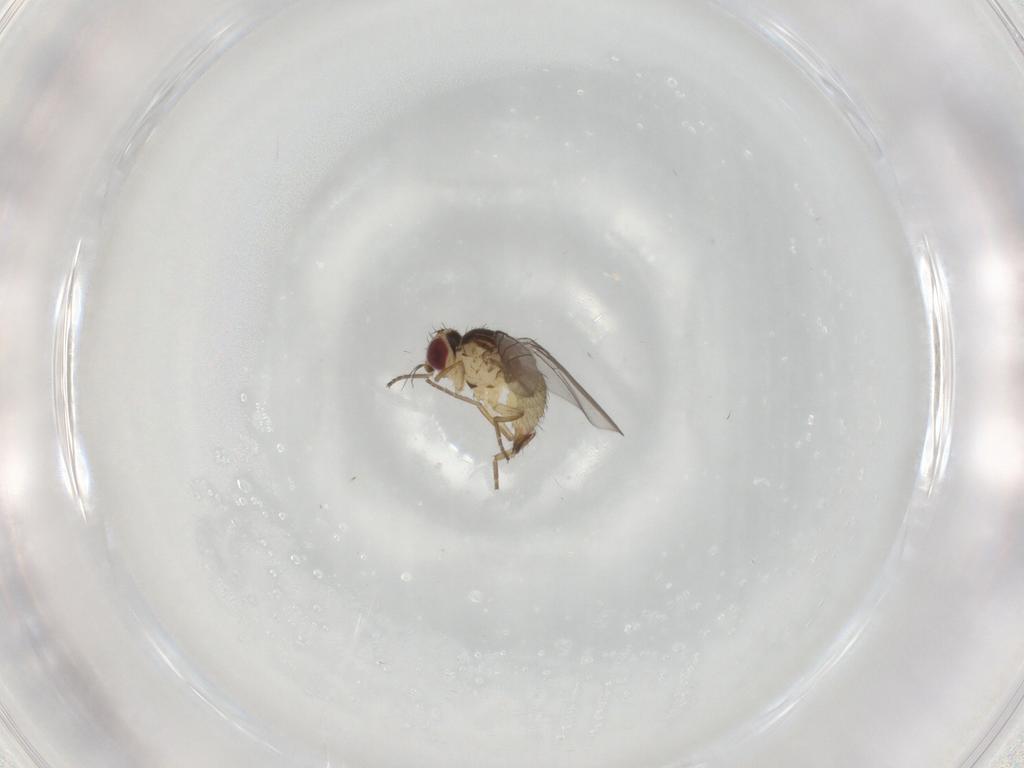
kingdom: Animalia
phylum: Arthropoda
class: Insecta
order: Diptera
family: Agromyzidae
